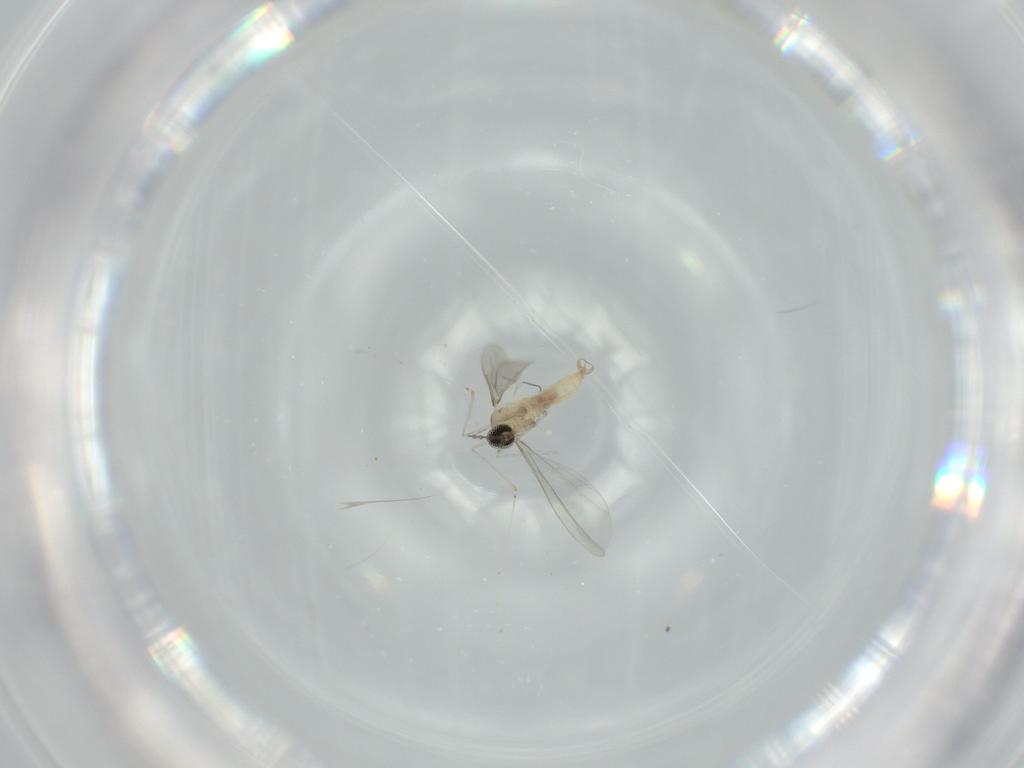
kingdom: Animalia
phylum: Arthropoda
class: Insecta
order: Diptera
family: Cecidomyiidae
